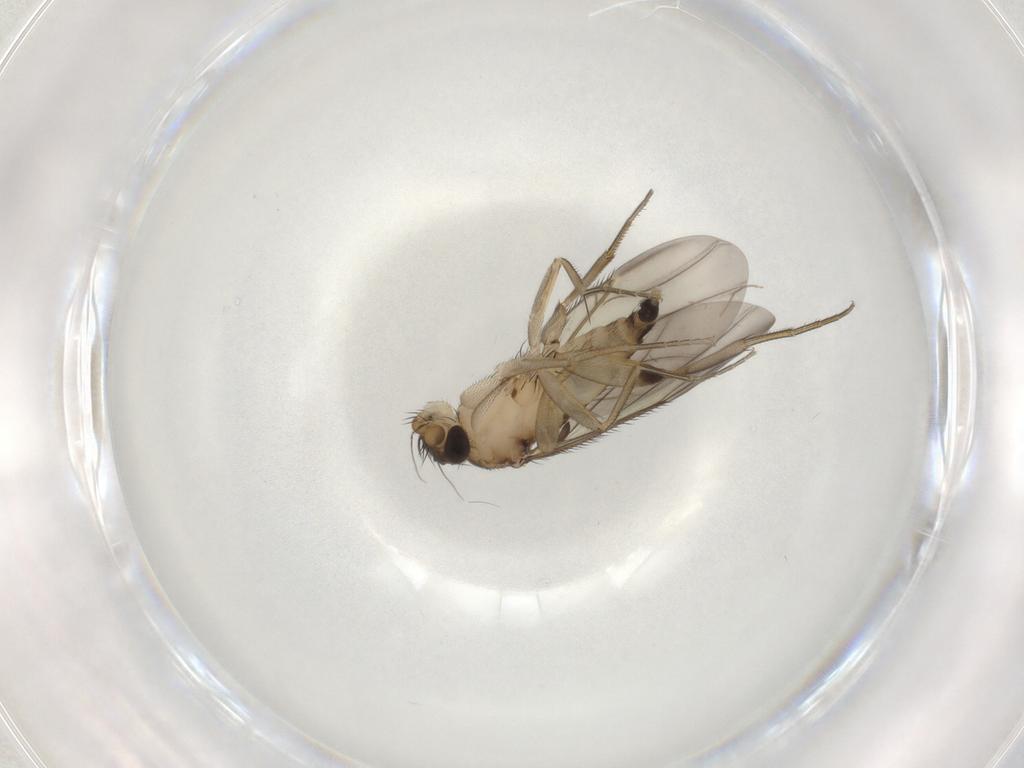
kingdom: Animalia
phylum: Arthropoda
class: Insecta
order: Diptera
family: Phoridae
